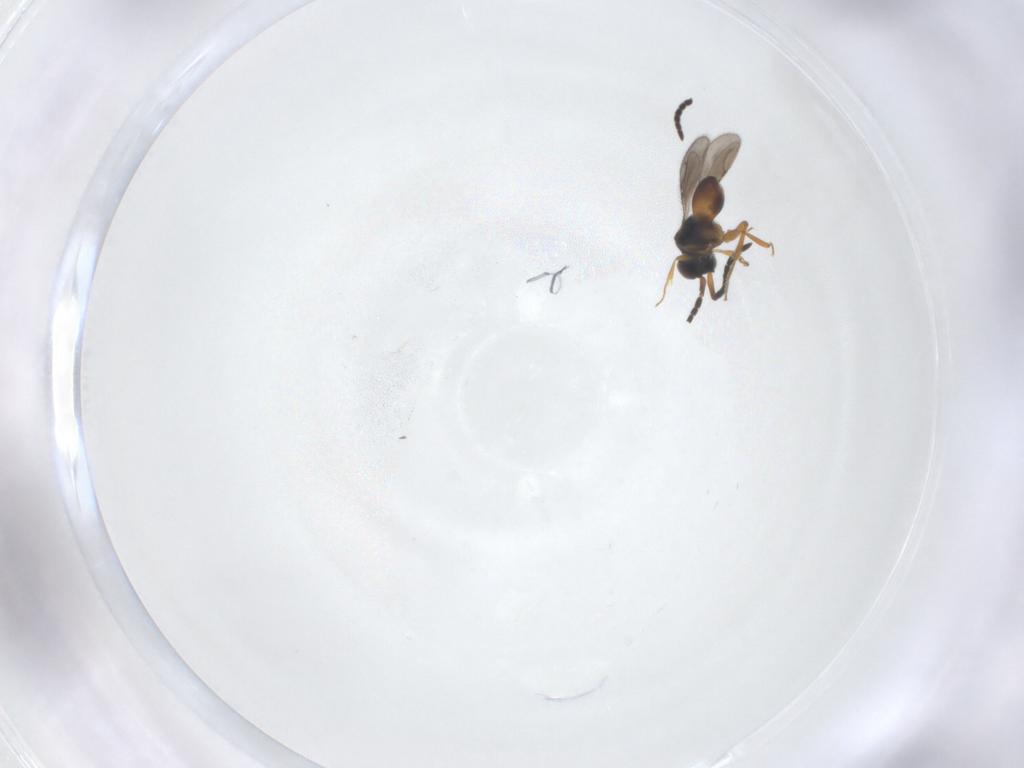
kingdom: Animalia
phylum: Arthropoda
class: Insecta
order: Hymenoptera
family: Ceraphronidae
